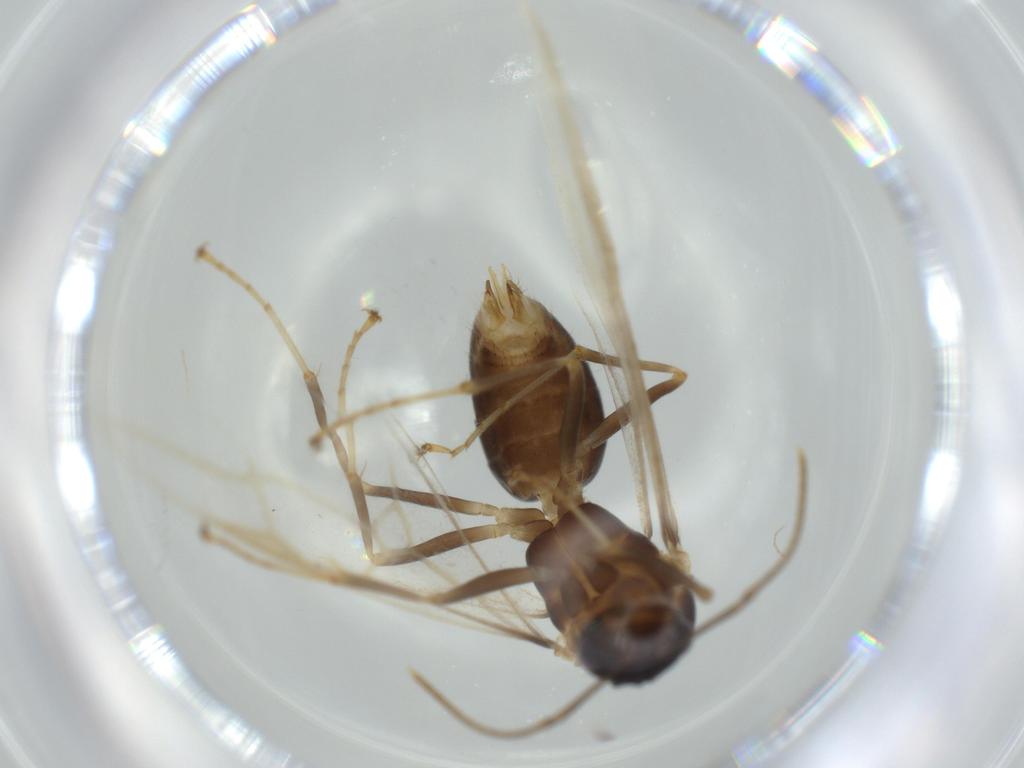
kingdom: Animalia
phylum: Arthropoda
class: Insecta
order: Hymenoptera
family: Formicidae
